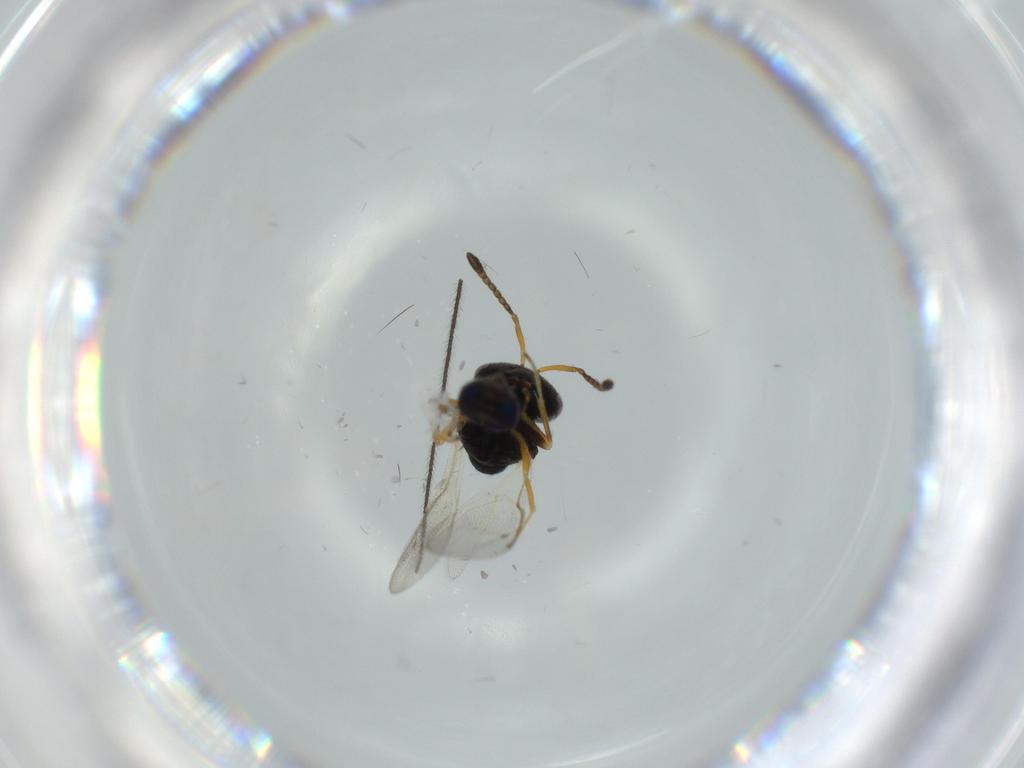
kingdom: Animalia
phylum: Arthropoda
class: Insecta
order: Hymenoptera
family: Pteromalidae
